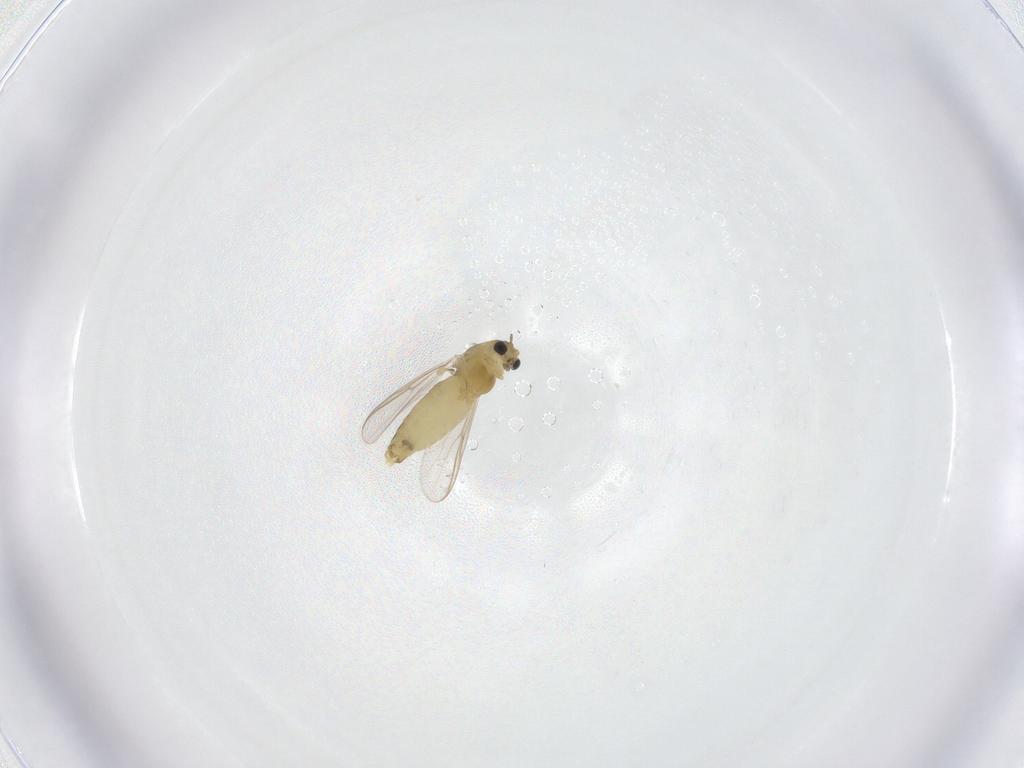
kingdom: Animalia
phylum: Arthropoda
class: Insecta
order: Diptera
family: Chironomidae
